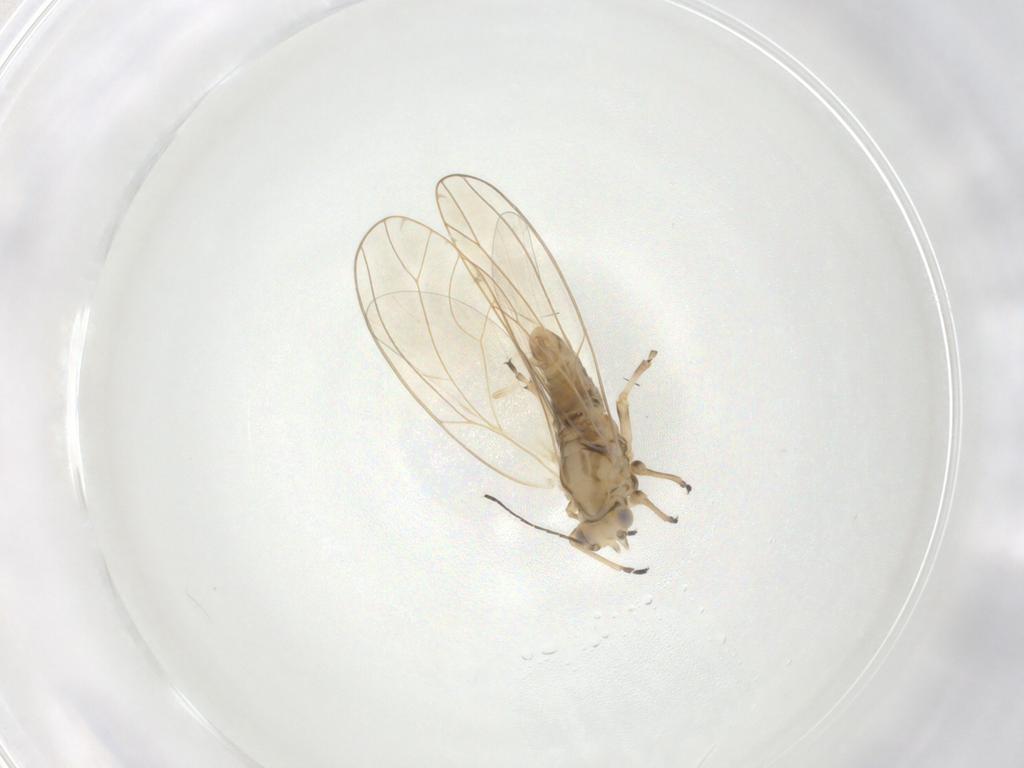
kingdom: Animalia
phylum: Arthropoda
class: Insecta
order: Hemiptera
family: Triozidae
